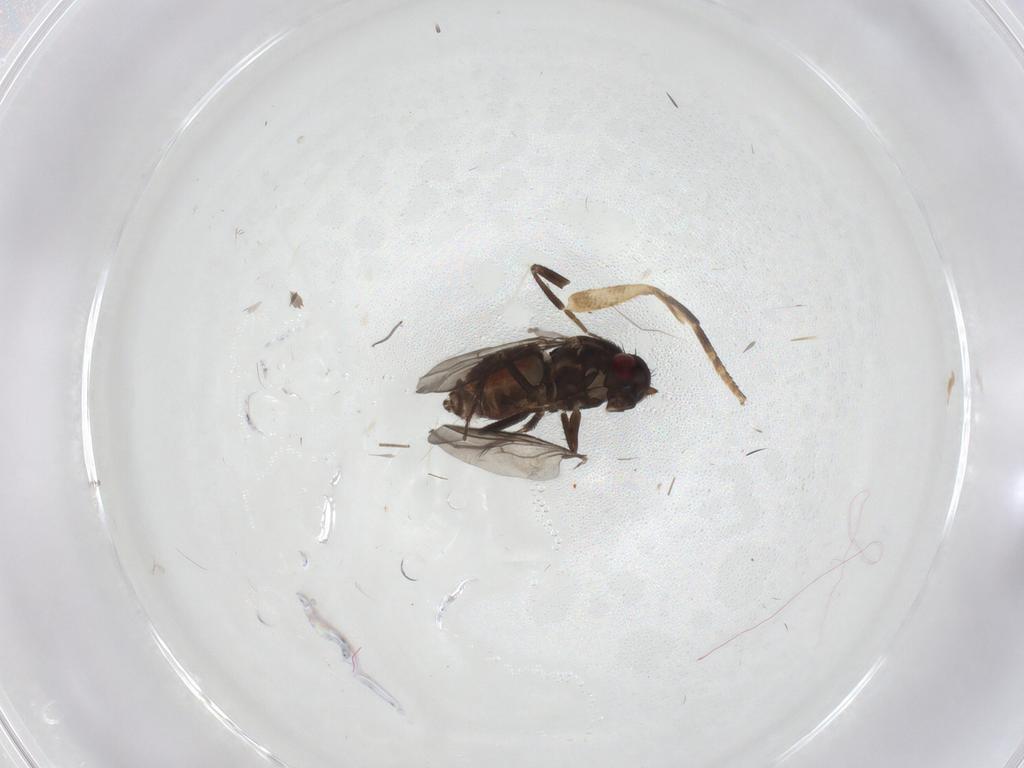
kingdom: Animalia
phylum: Arthropoda
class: Insecta
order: Diptera
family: Sphaeroceridae
